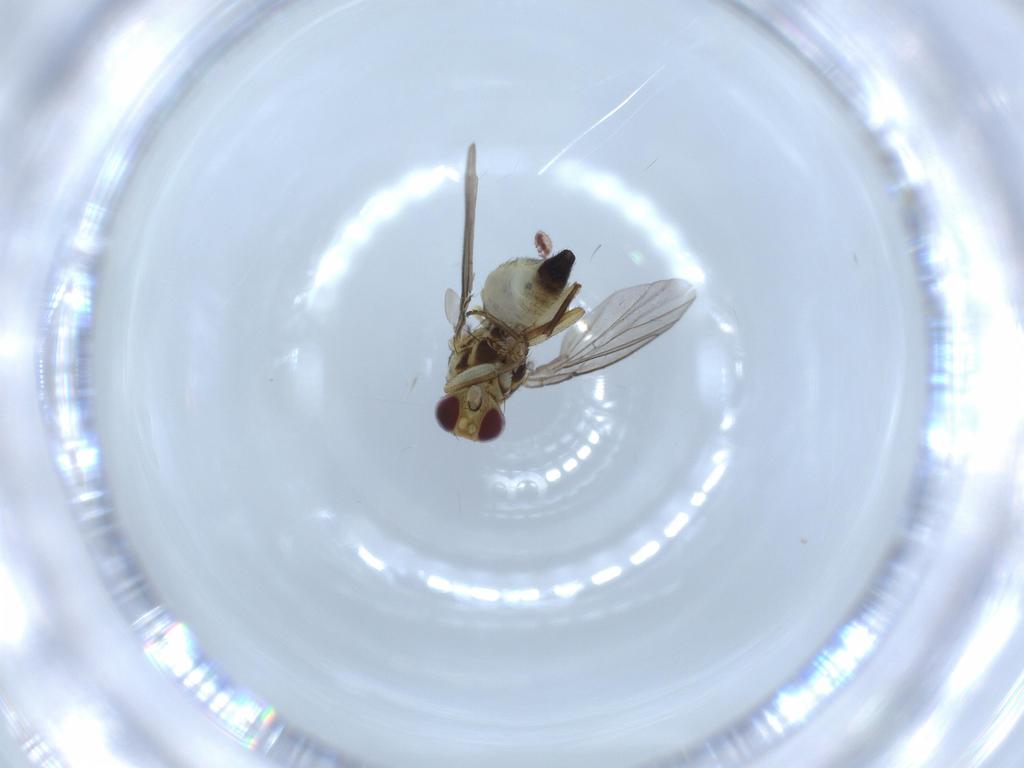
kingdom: Animalia
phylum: Arthropoda
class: Insecta
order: Diptera
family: Agromyzidae
